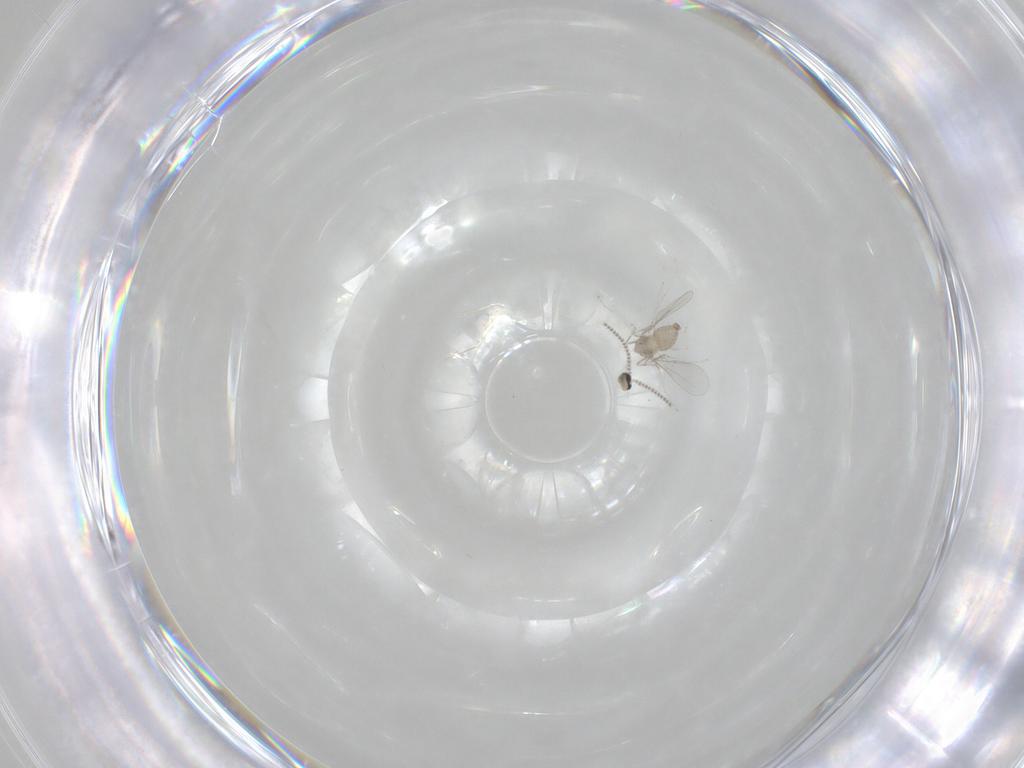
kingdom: Animalia
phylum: Arthropoda
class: Insecta
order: Diptera
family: Cecidomyiidae
